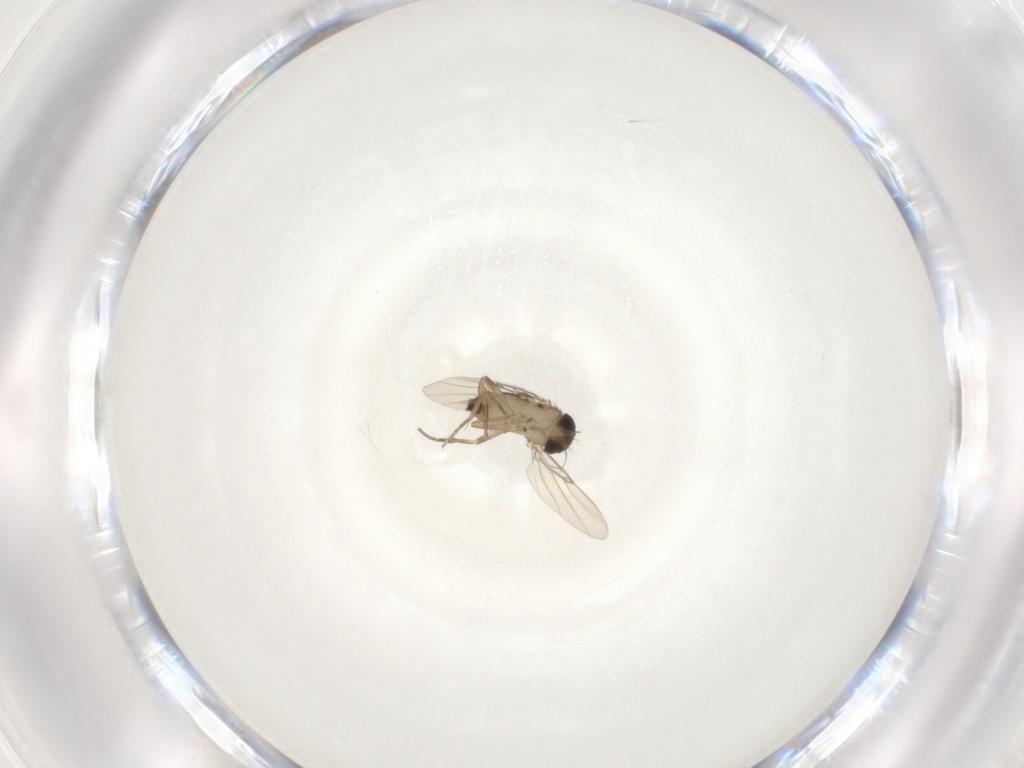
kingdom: Animalia
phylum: Arthropoda
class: Insecta
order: Diptera
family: Phoridae
